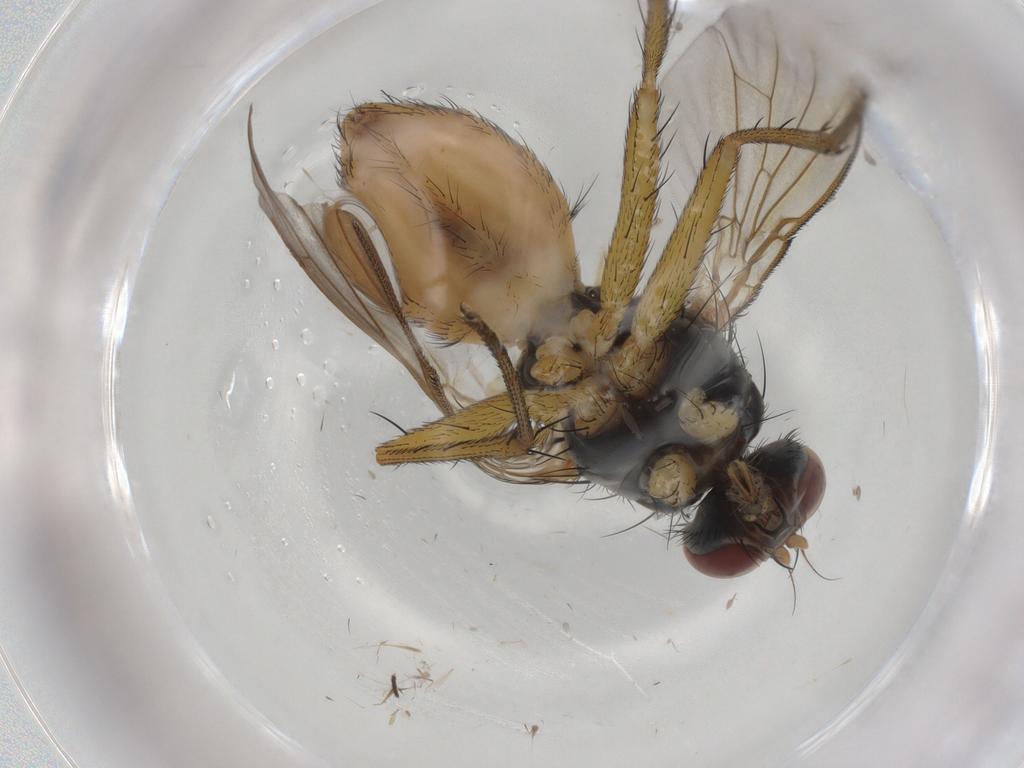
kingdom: Animalia
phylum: Arthropoda
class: Insecta
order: Diptera
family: Muscidae
